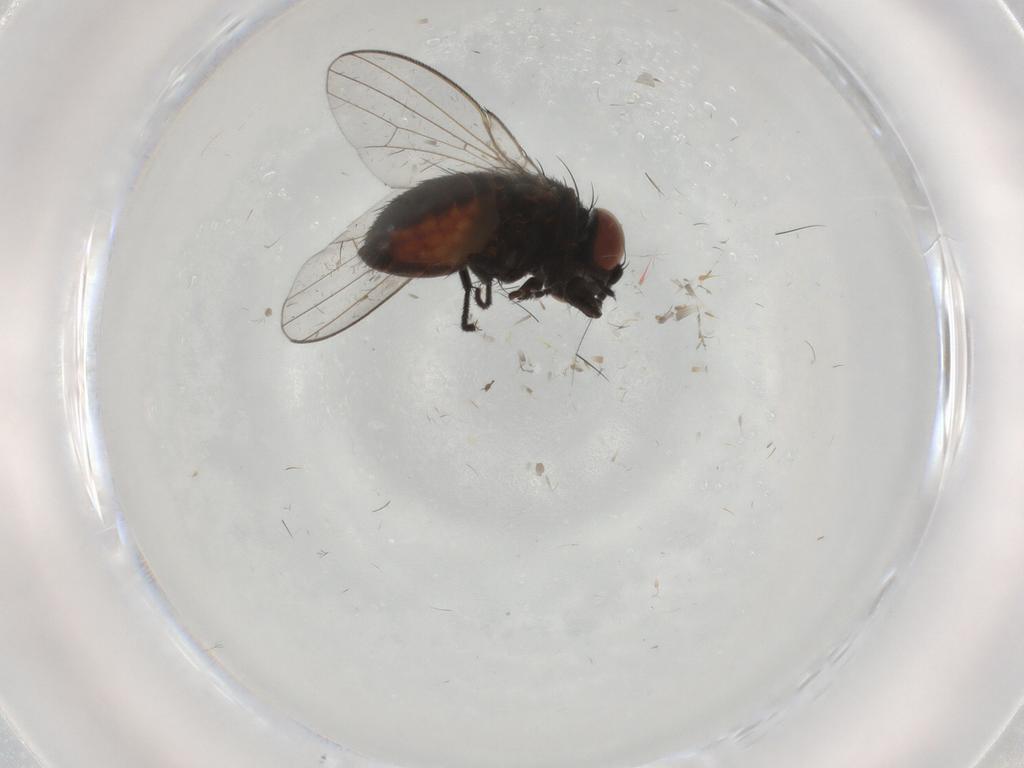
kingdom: Animalia
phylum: Arthropoda
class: Insecta
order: Diptera
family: Milichiidae
